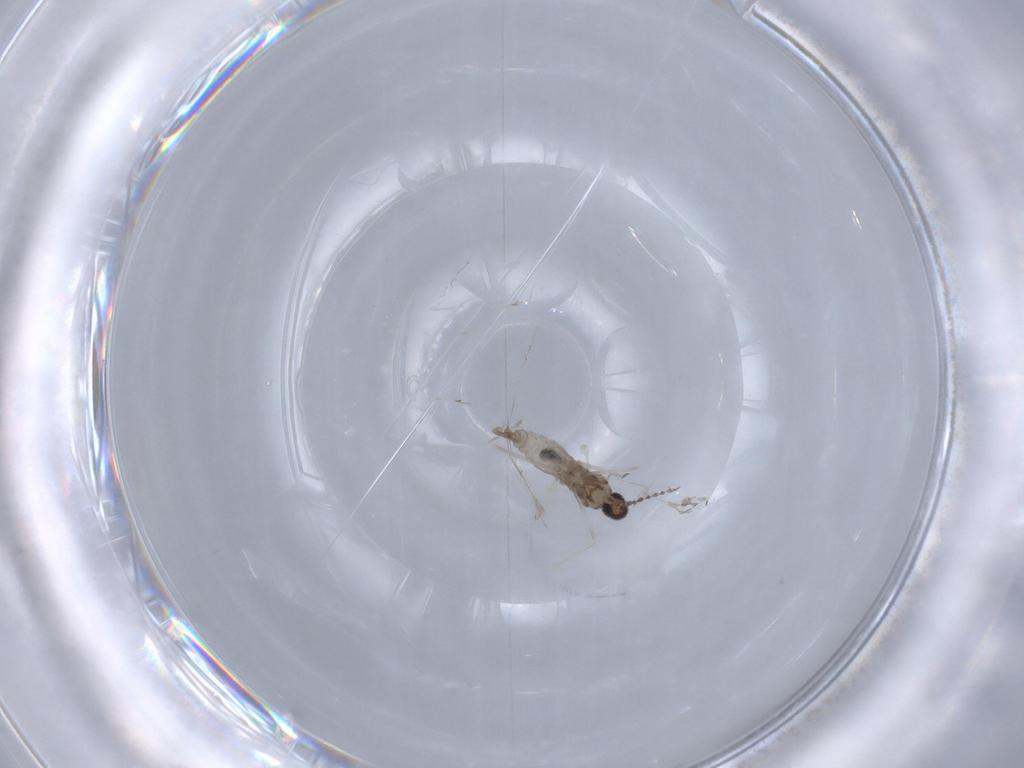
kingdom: Animalia
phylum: Arthropoda
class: Insecta
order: Diptera
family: Cecidomyiidae
